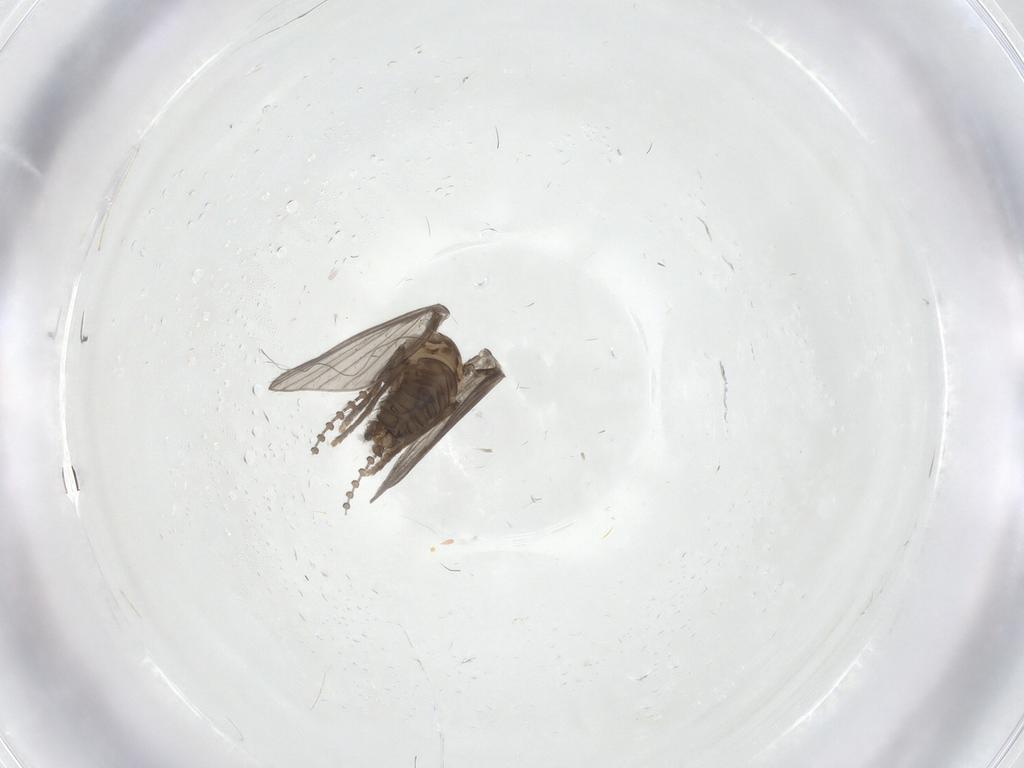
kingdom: Animalia
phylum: Arthropoda
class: Insecta
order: Diptera
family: Psychodidae
